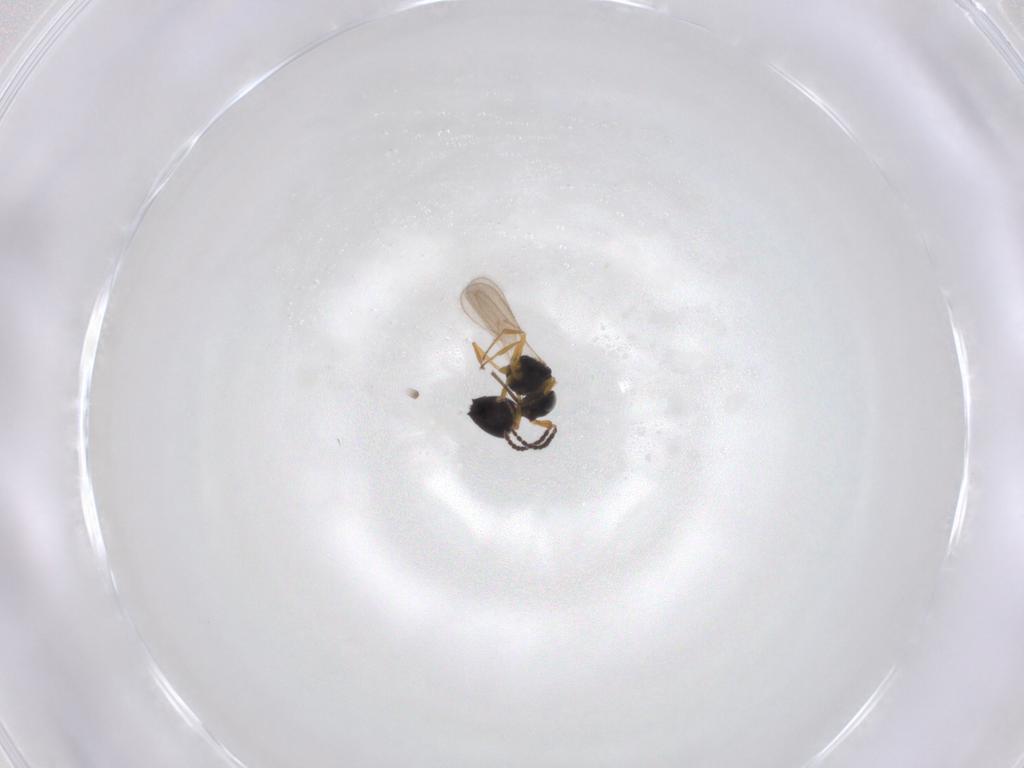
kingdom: Animalia
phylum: Arthropoda
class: Insecta
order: Hymenoptera
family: Scelionidae
